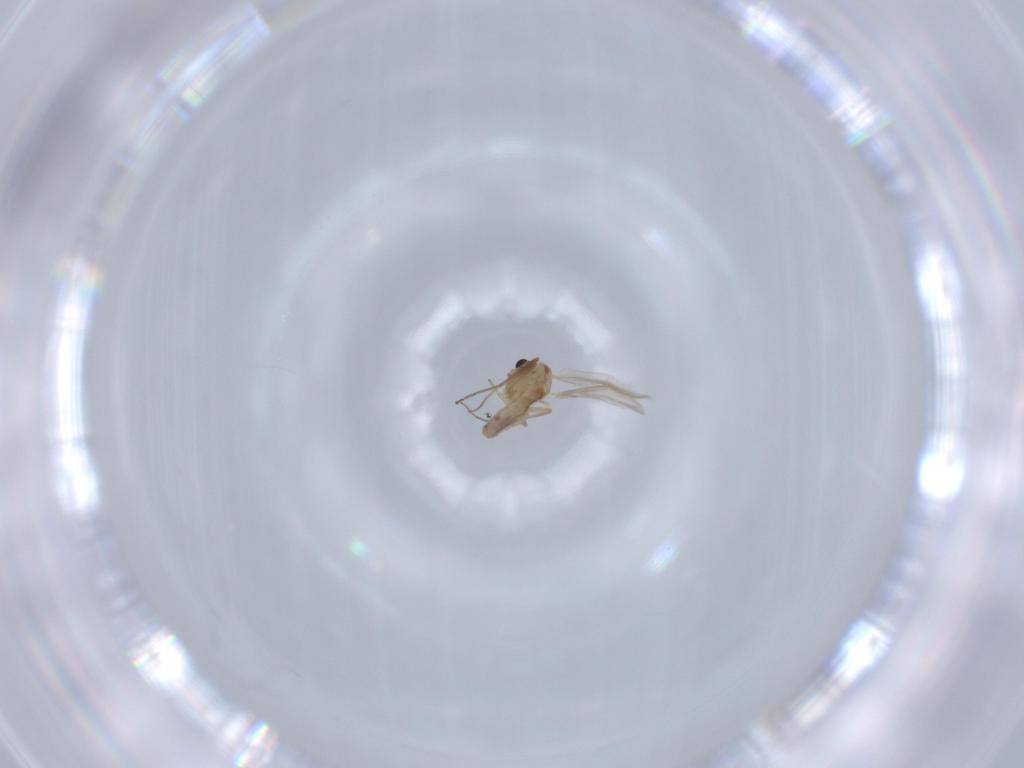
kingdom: Animalia
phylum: Arthropoda
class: Insecta
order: Diptera
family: Chironomidae
